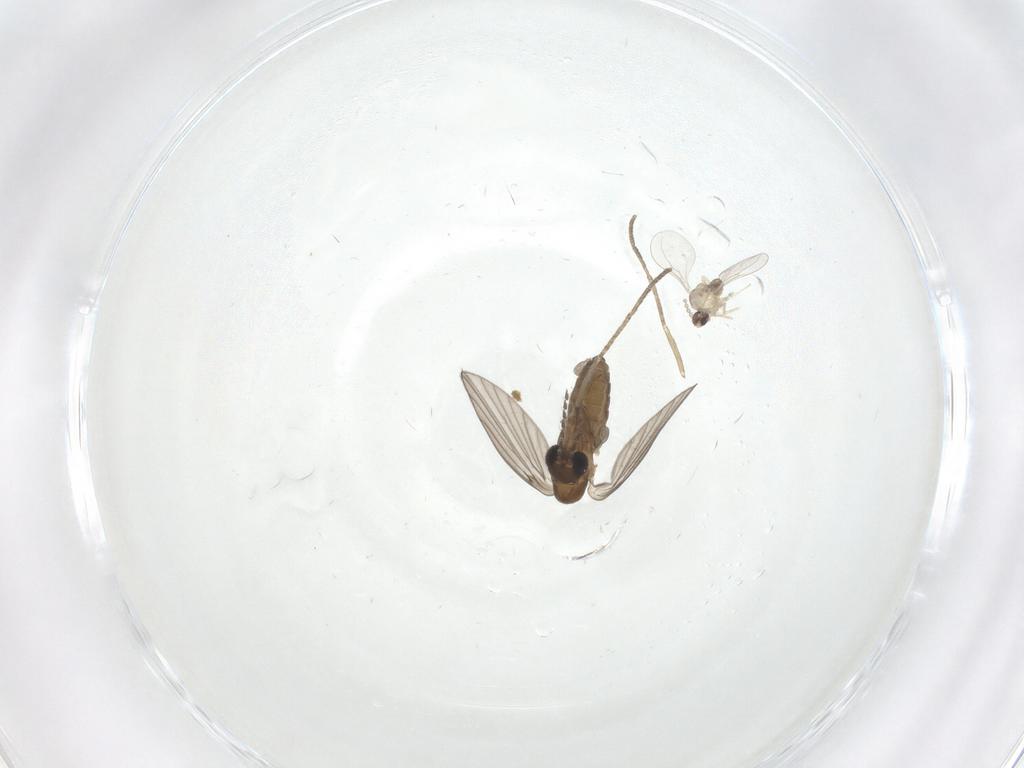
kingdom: Animalia
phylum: Arthropoda
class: Insecta
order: Diptera
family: Cecidomyiidae
